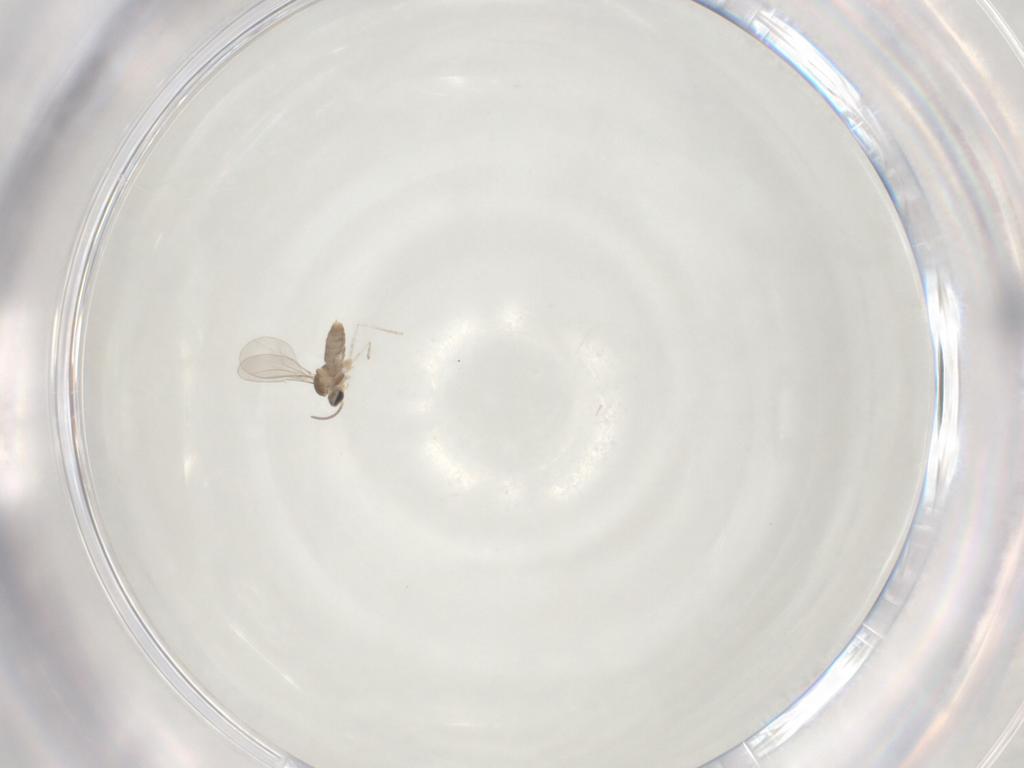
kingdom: Animalia
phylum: Arthropoda
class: Insecta
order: Diptera
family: Cecidomyiidae
